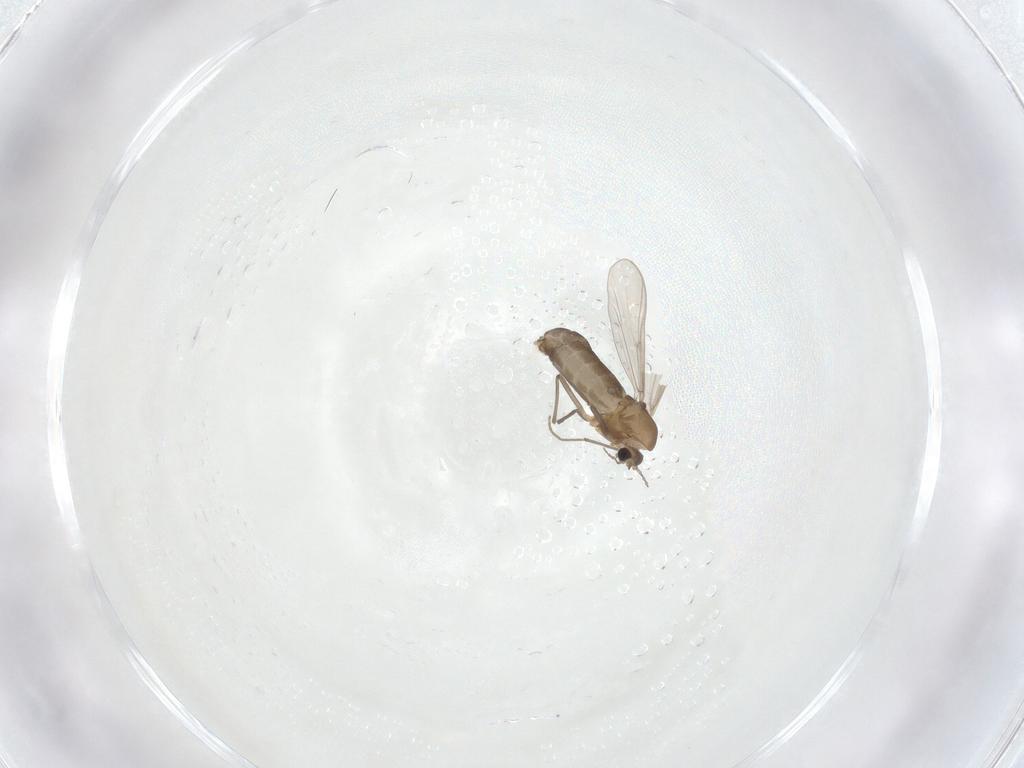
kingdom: Animalia
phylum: Arthropoda
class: Insecta
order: Diptera
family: Chironomidae
